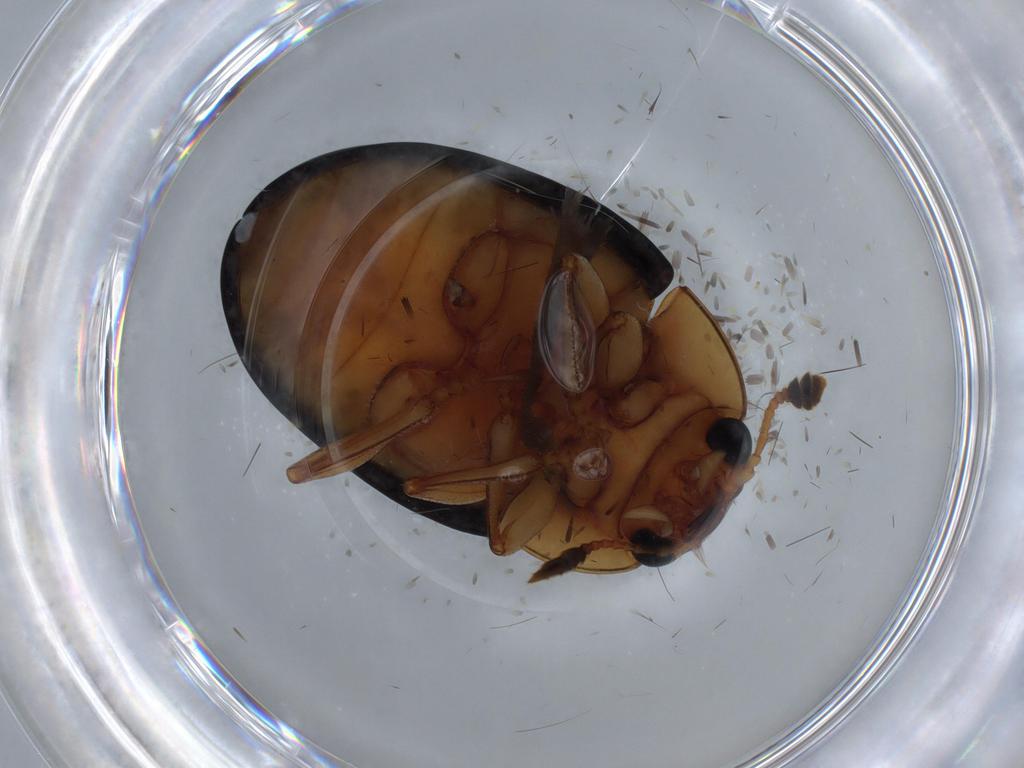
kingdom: Animalia
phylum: Arthropoda
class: Insecta
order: Coleoptera
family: Erotylidae
